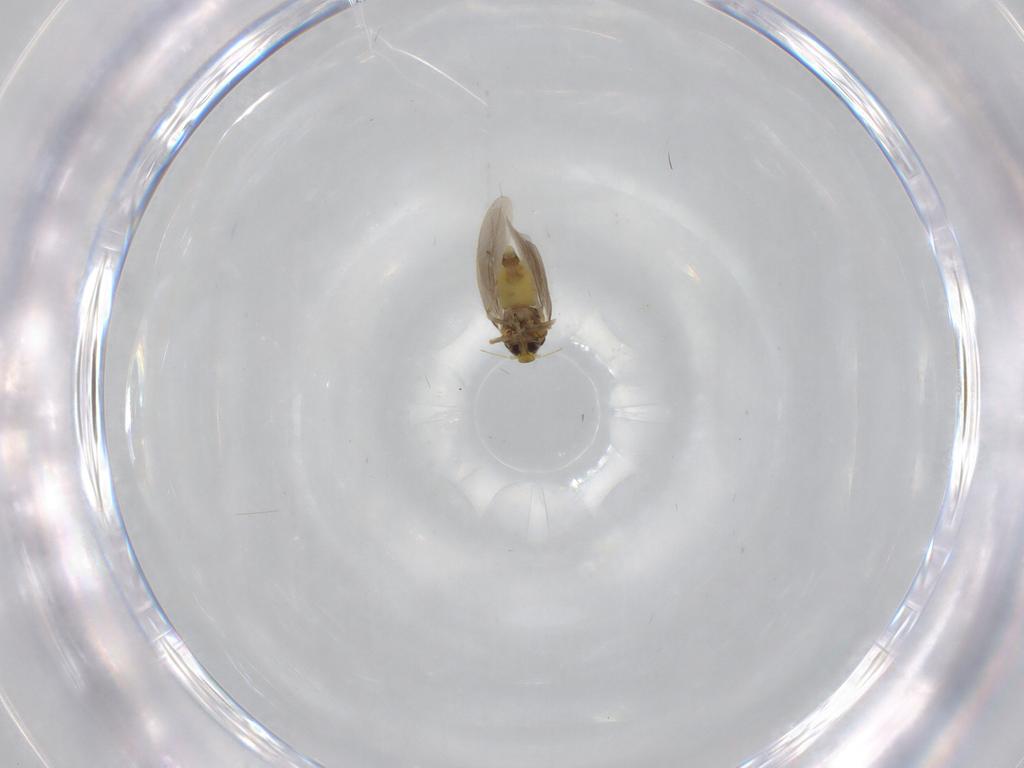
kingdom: Animalia
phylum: Arthropoda
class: Insecta
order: Hemiptera
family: Aleyrodidae
